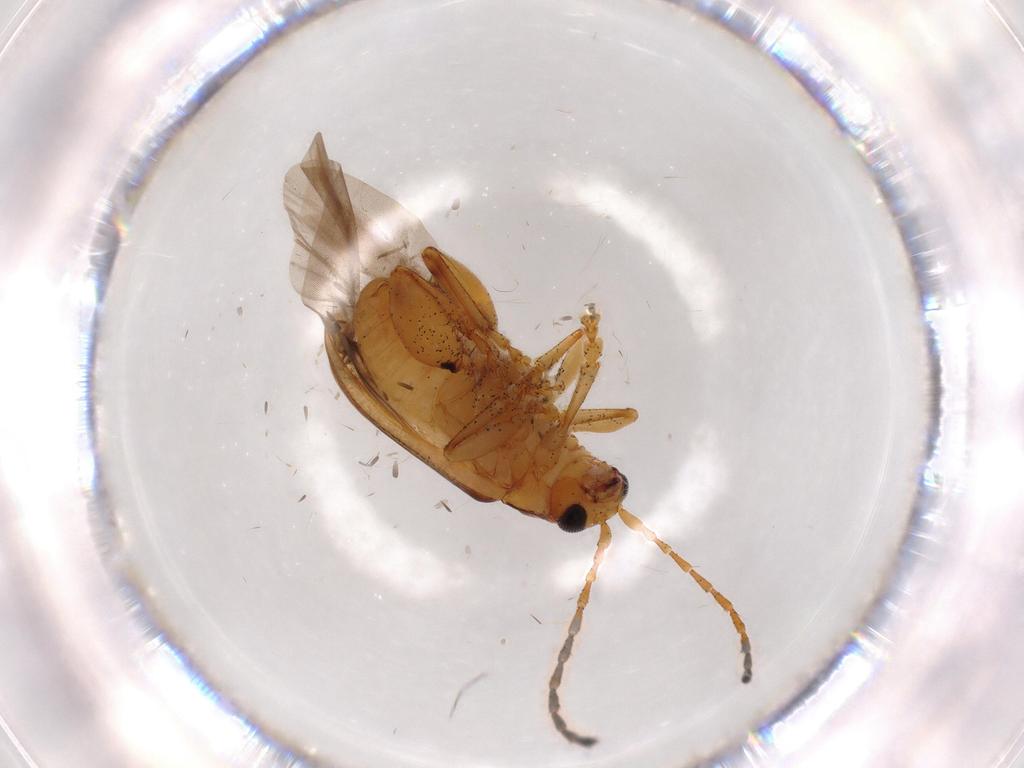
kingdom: Animalia
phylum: Arthropoda
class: Insecta
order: Coleoptera
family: Chrysomelidae
